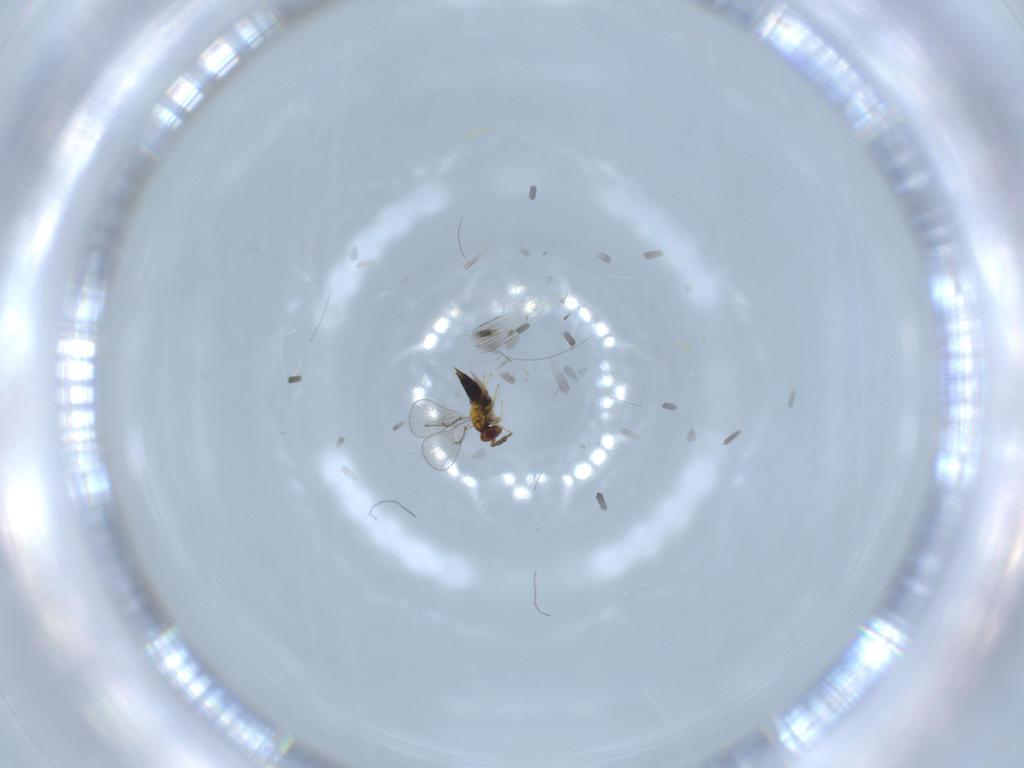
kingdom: Animalia
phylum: Arthropoda
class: Insecta
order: Hymenoptera
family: Trichogrammatidae
